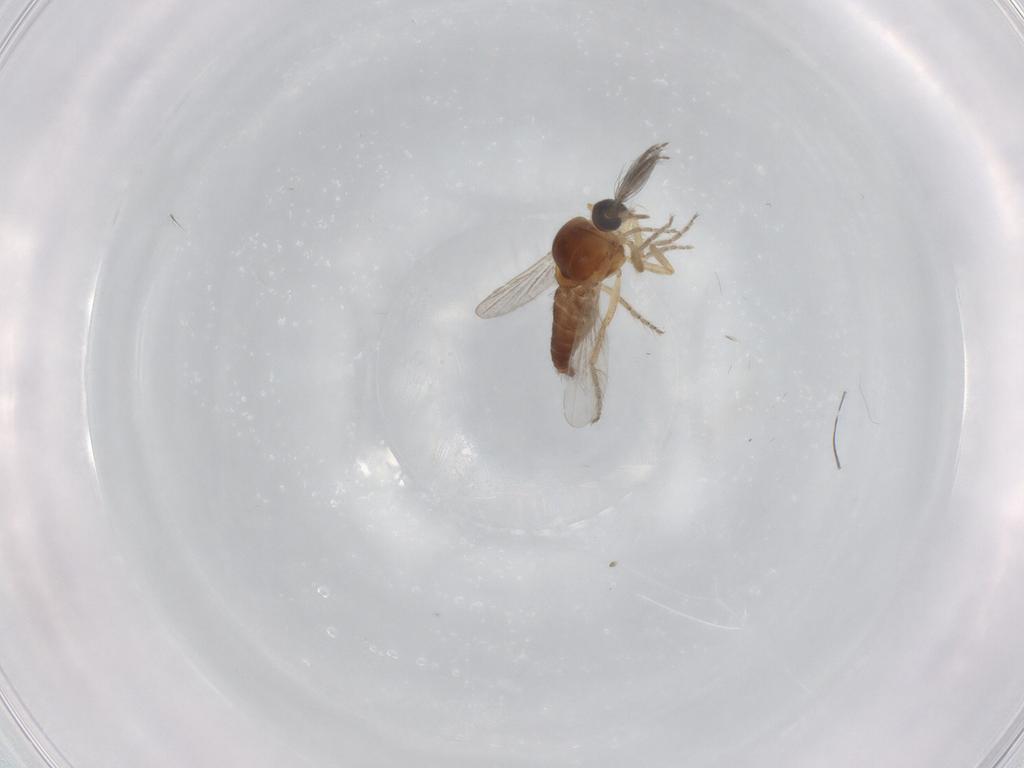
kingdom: Animalia
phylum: Arthropoda
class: Insecta
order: Diptera
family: Ceratopogonidae
